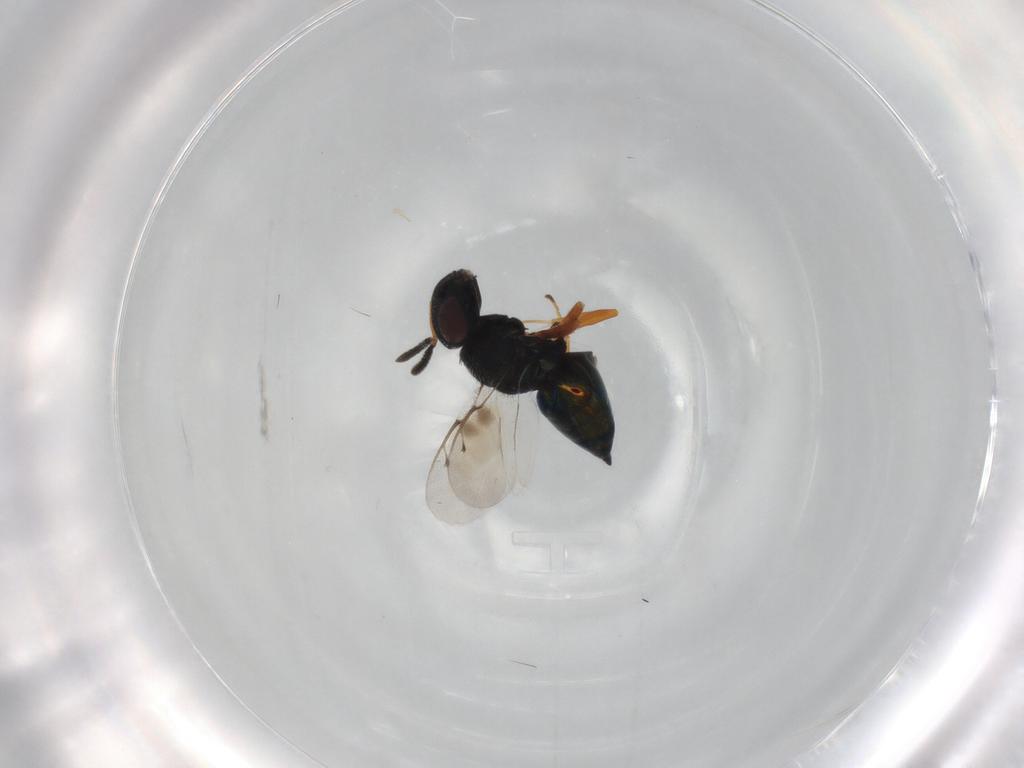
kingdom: Animalia
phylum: Arthropoda
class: Insecta
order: Hymenoptera
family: Pteromalidae
